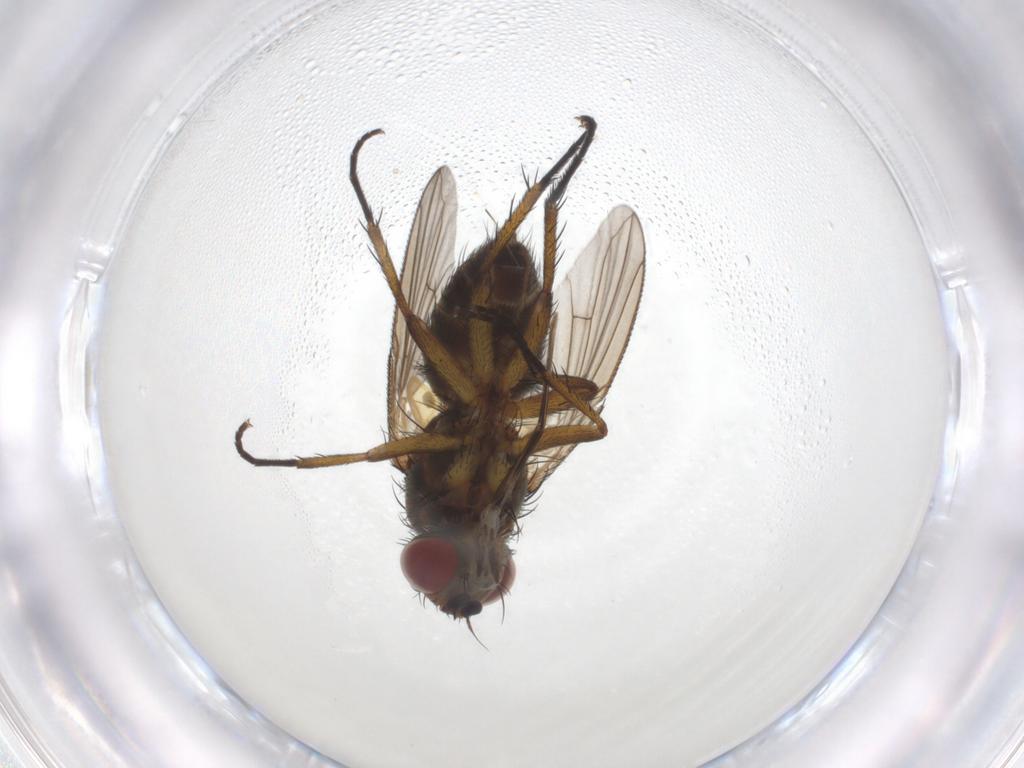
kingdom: Animalia
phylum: Arthropoda
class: Insecta
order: Diptera
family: Tachinidae
